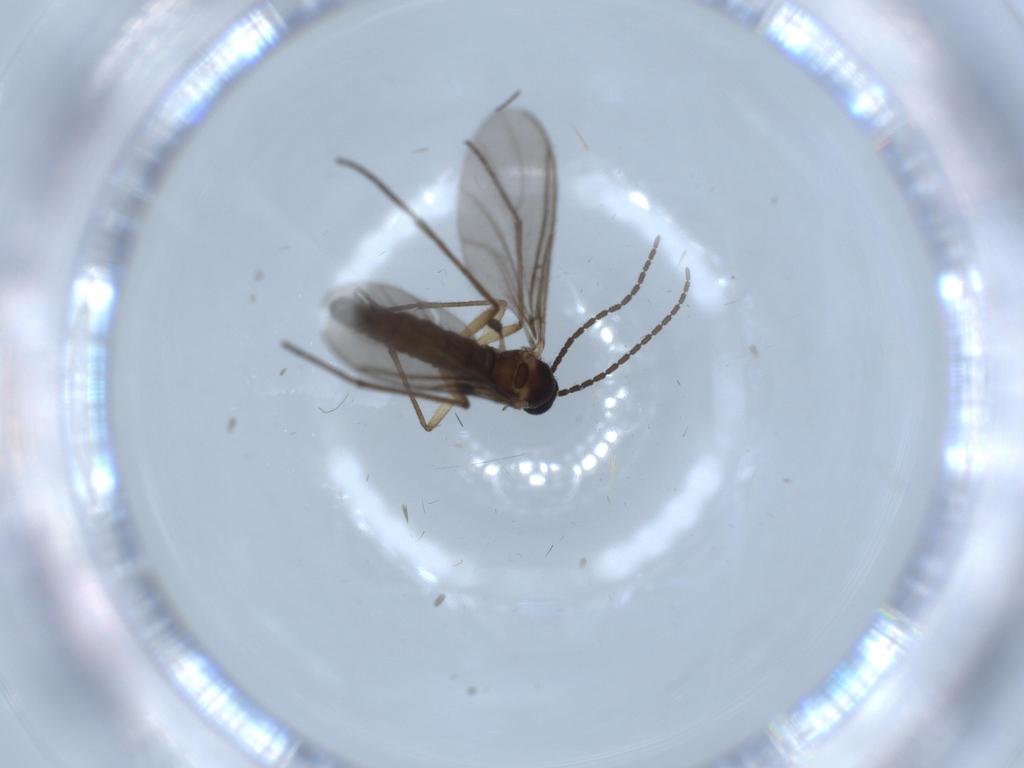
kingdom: Animalia
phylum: Arthropoda
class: Insecta
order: Diptera
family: Sciaridae
